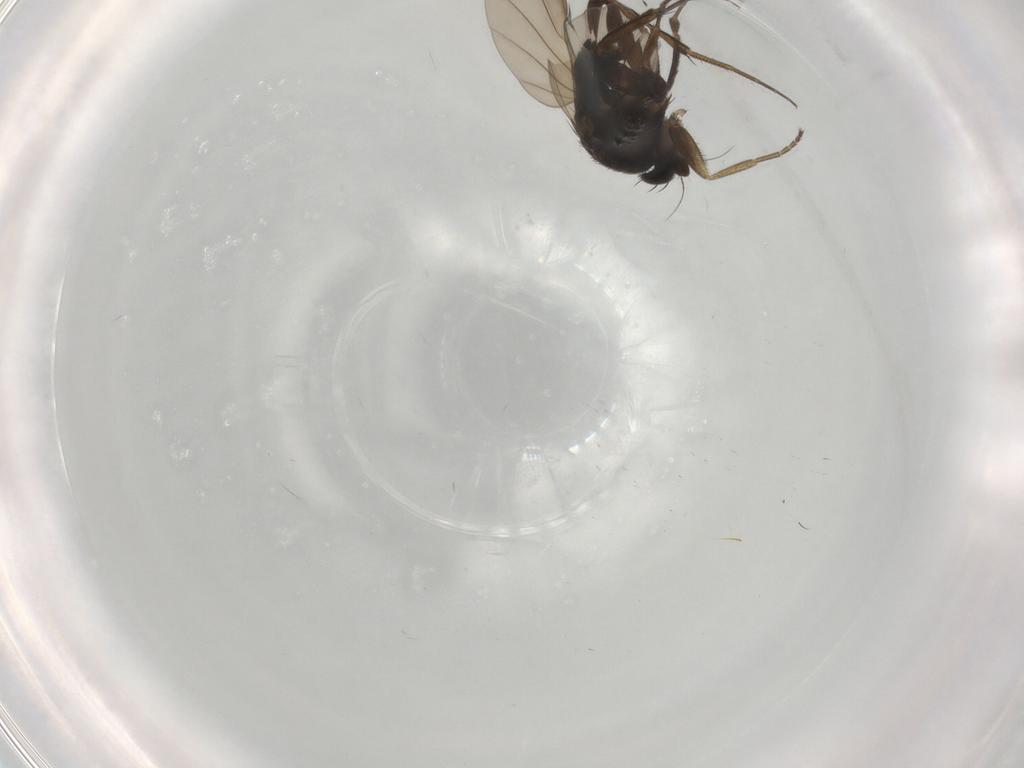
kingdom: Animalia
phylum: Arthropoda
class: Insecta
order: Diptera
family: Phoridae
